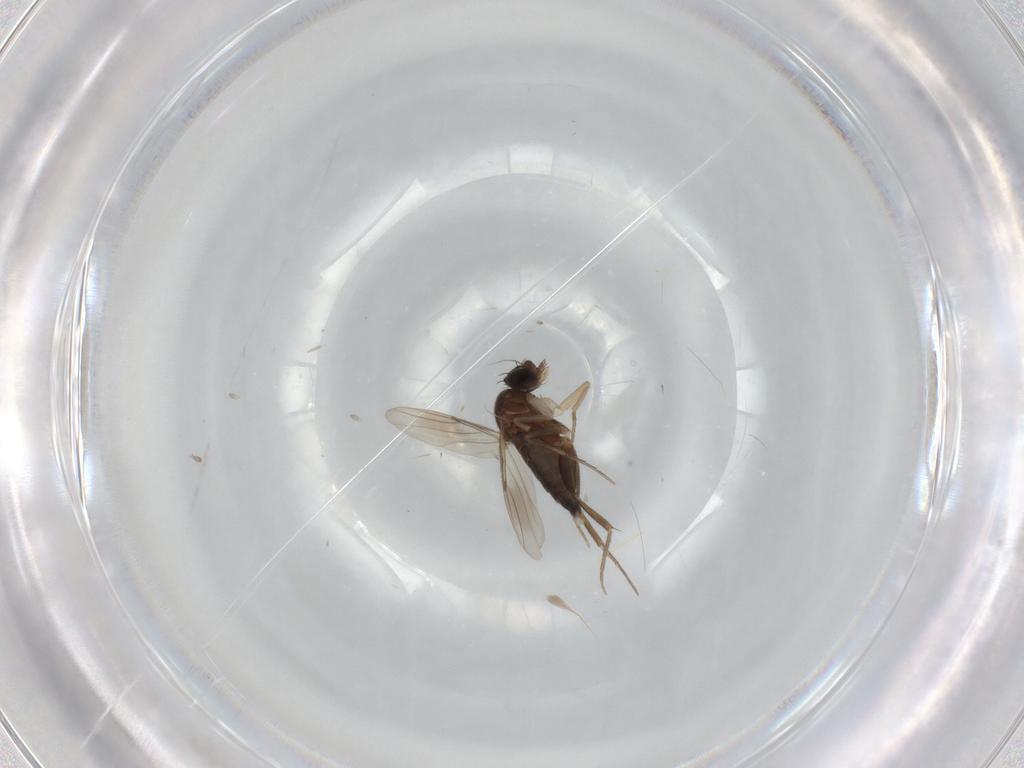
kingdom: Animalia
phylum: Arthropoda
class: Insecta
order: Diptera
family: Phoridae
